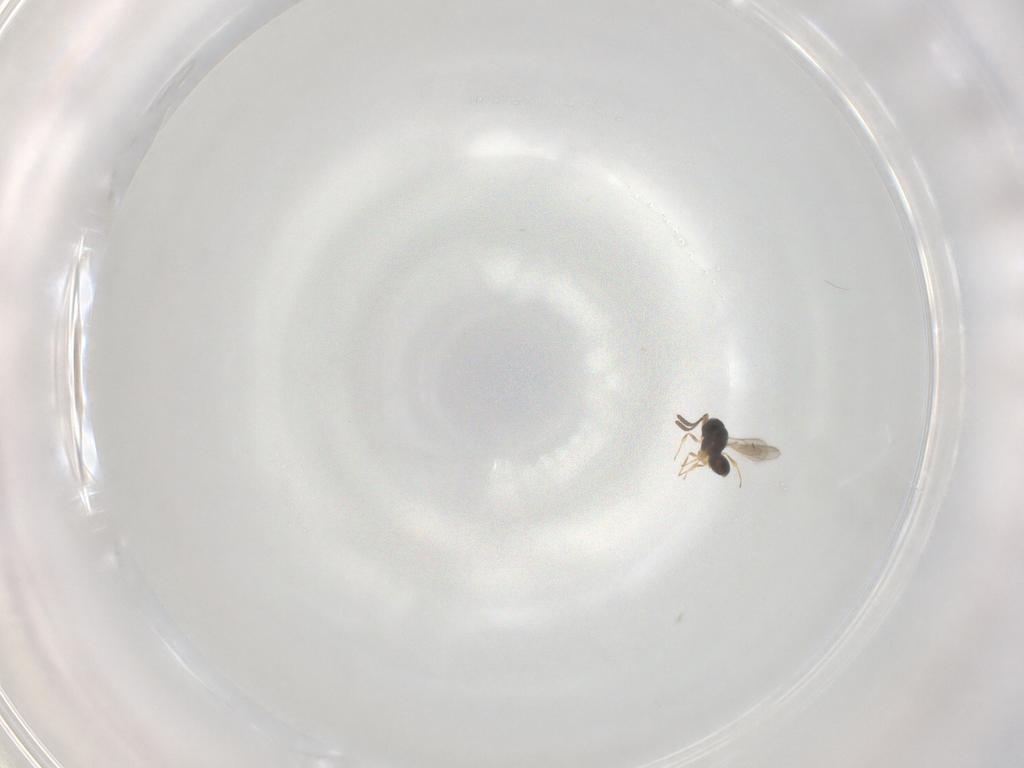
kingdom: Animalia
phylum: Arthropoda
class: Insecta
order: Hymenoptera
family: Scelionidae
